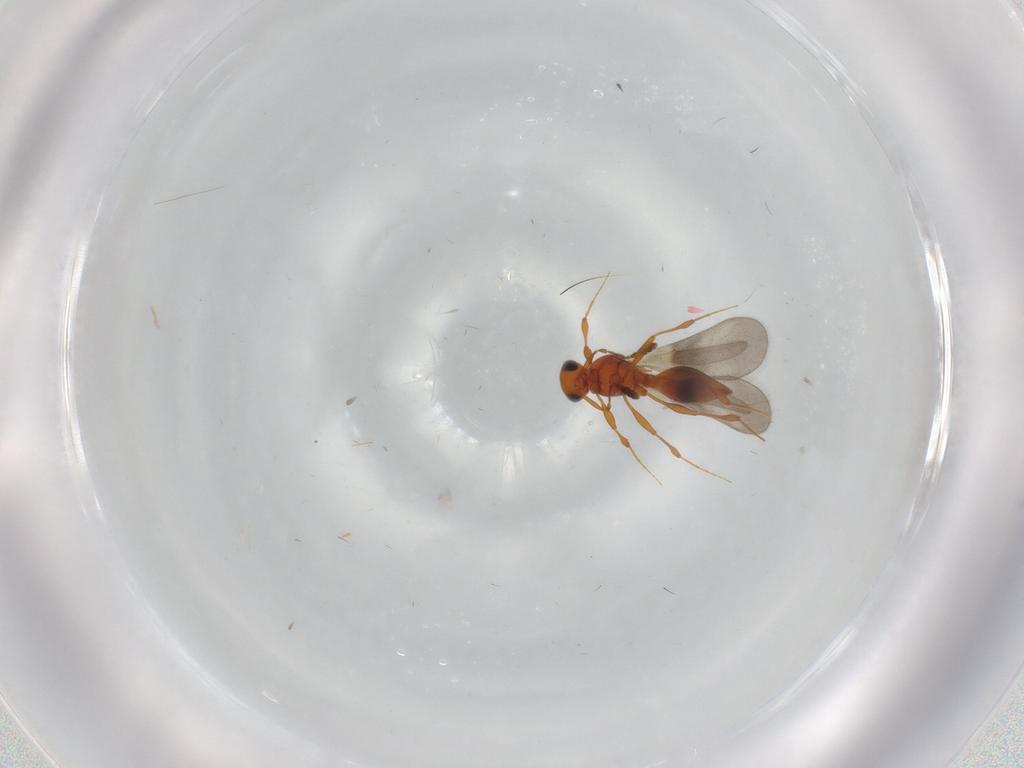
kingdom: Animalia
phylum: Arthropoda
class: Insecta
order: Hymenoptera
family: Platygastridae
